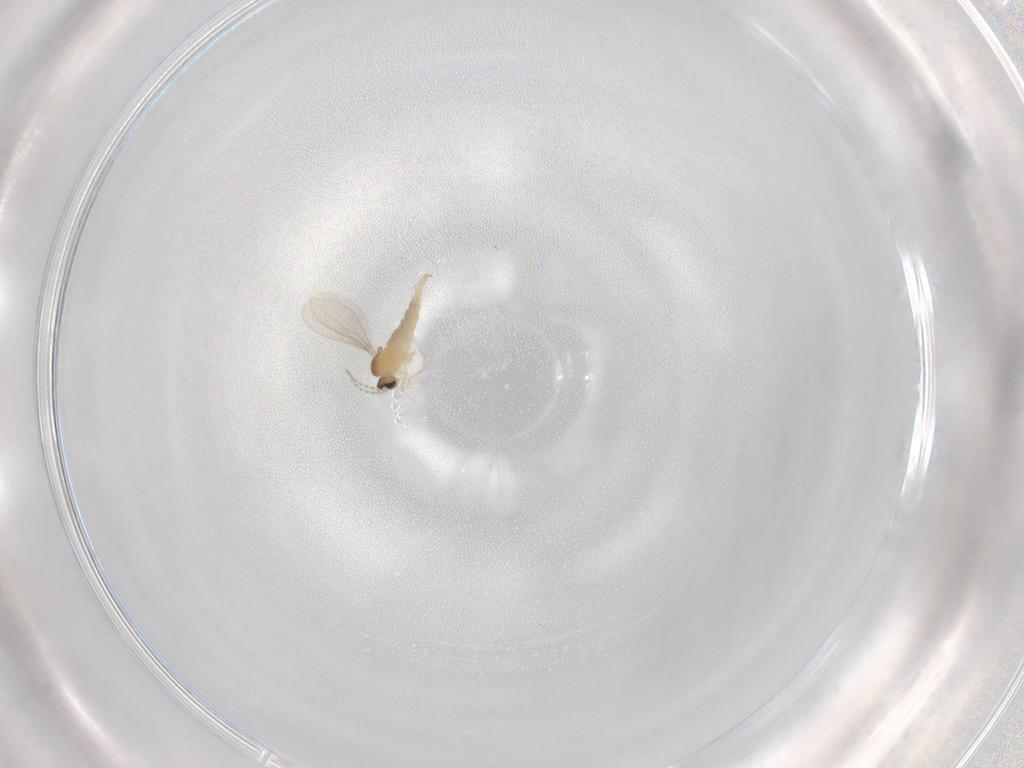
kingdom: Animalia
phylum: Arthropoda
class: Insecta
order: Diptera
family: Cecidomyiidae
